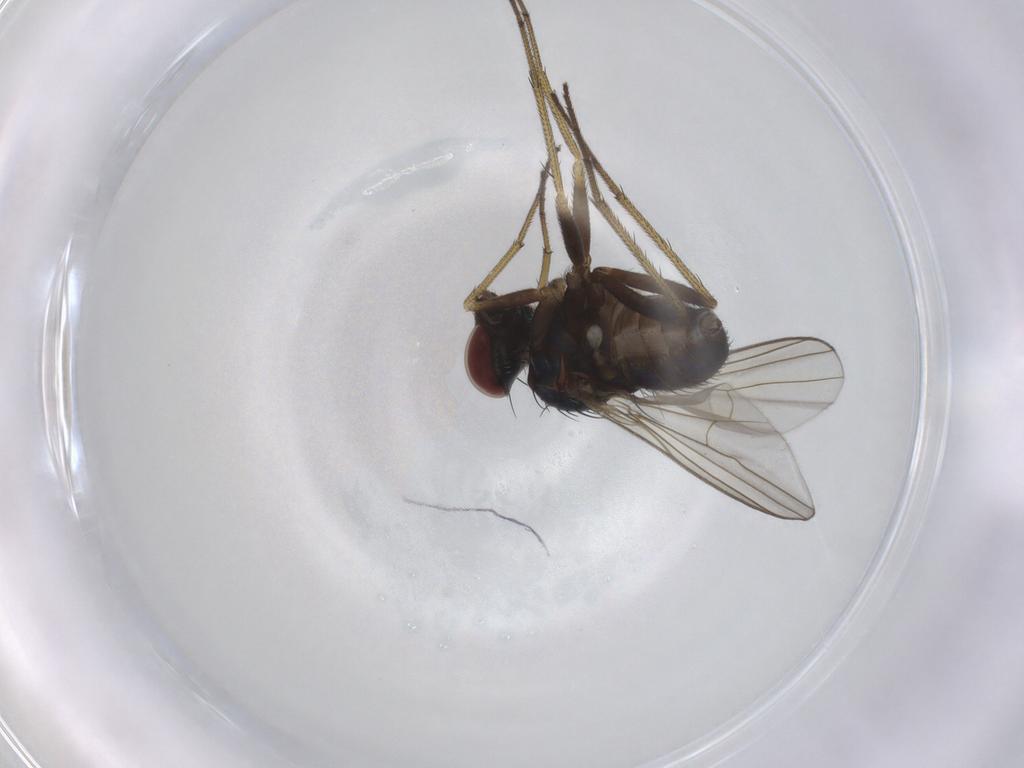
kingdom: Animalia
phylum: Arthropoda
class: Insecta
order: Diptera
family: Dolichopodidae
